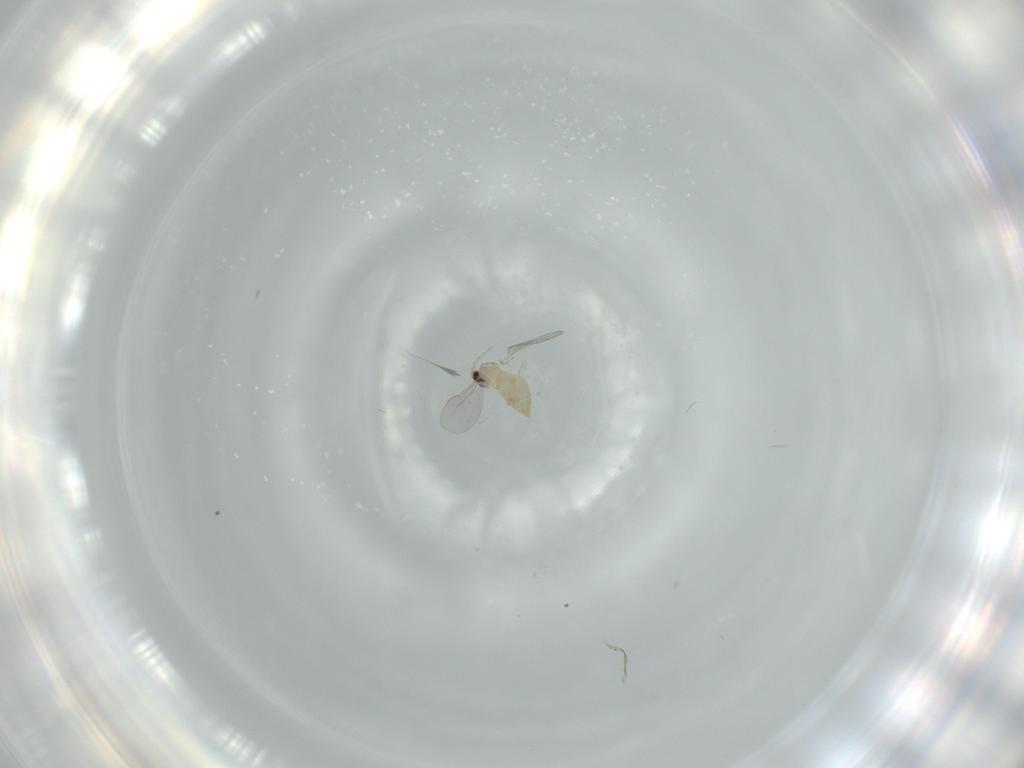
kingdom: Animalia
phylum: Arthropoda
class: Insecta
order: Diptera
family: Cecidomyiidae
